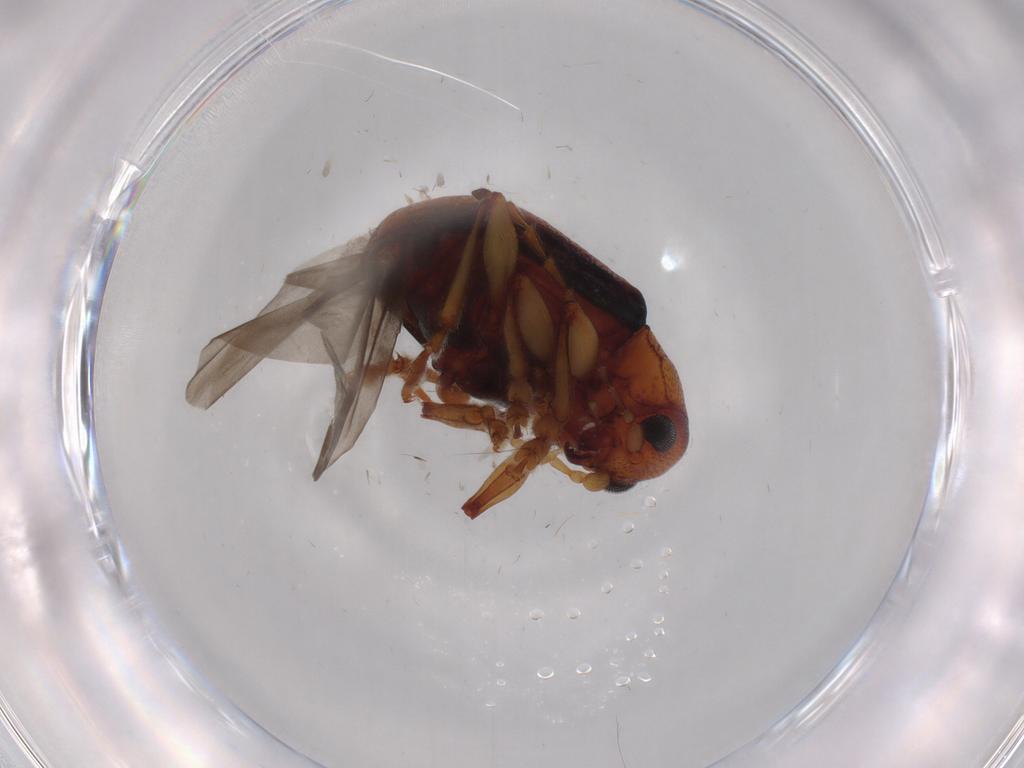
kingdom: Animalia
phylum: Arthropoda
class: Insecta
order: Coleoptera
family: Chrysomelidae
